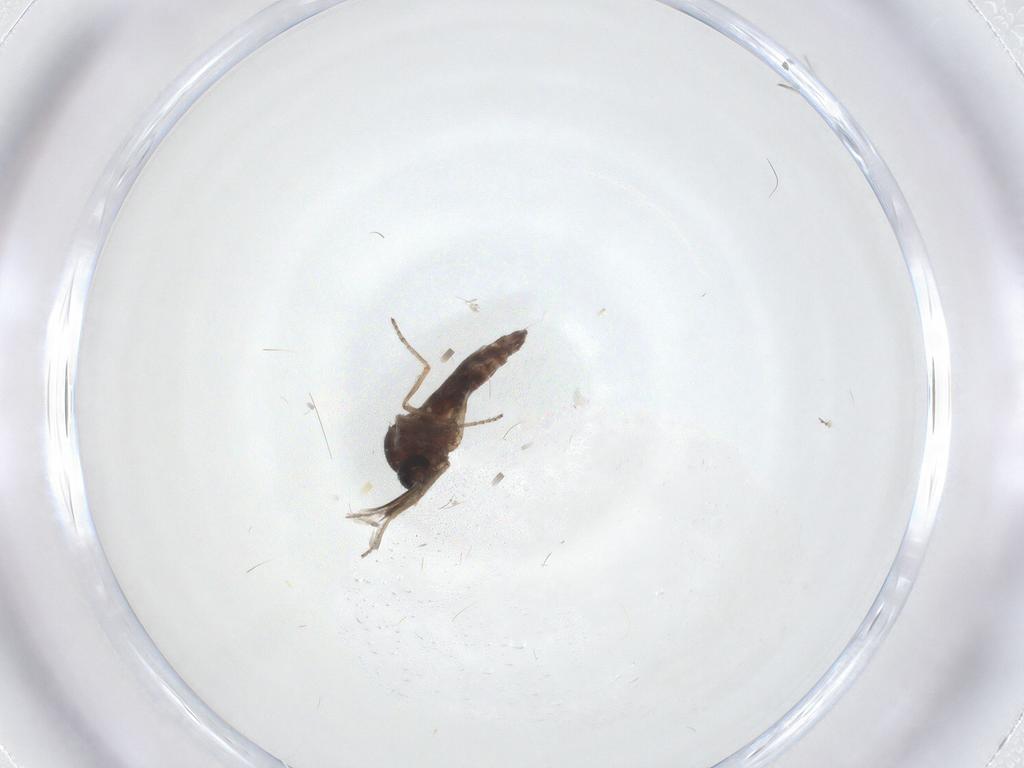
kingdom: Animalia
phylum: Arthropoda
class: Insecta
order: Diptera
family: Ceratopogonidae
